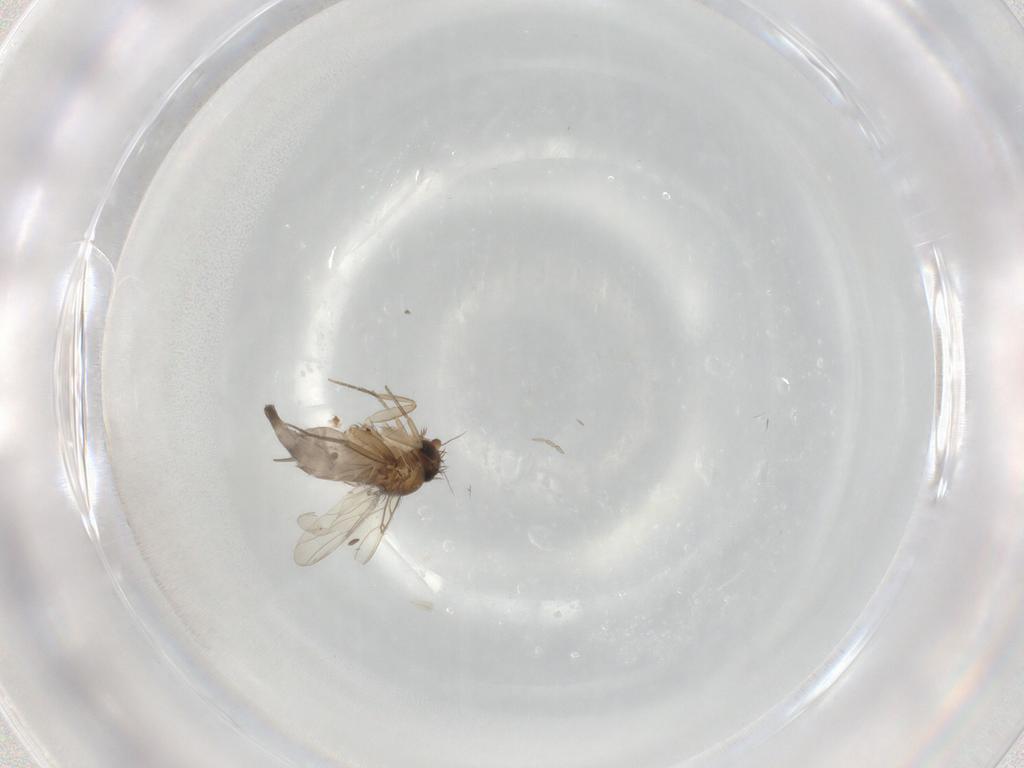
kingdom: Animalia
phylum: Arthropoda
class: Insecta
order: Diptera
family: Phoridae
